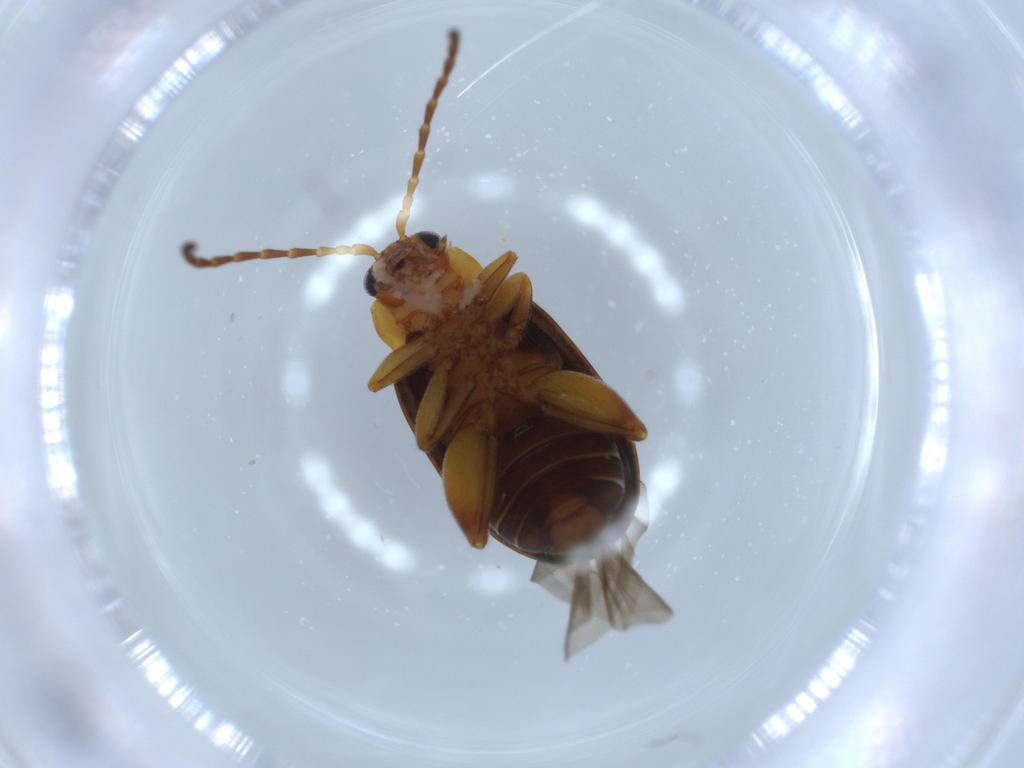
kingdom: Animalia
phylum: Arthropoda
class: Insecta
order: Coleoptera
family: Chrysomelidae
